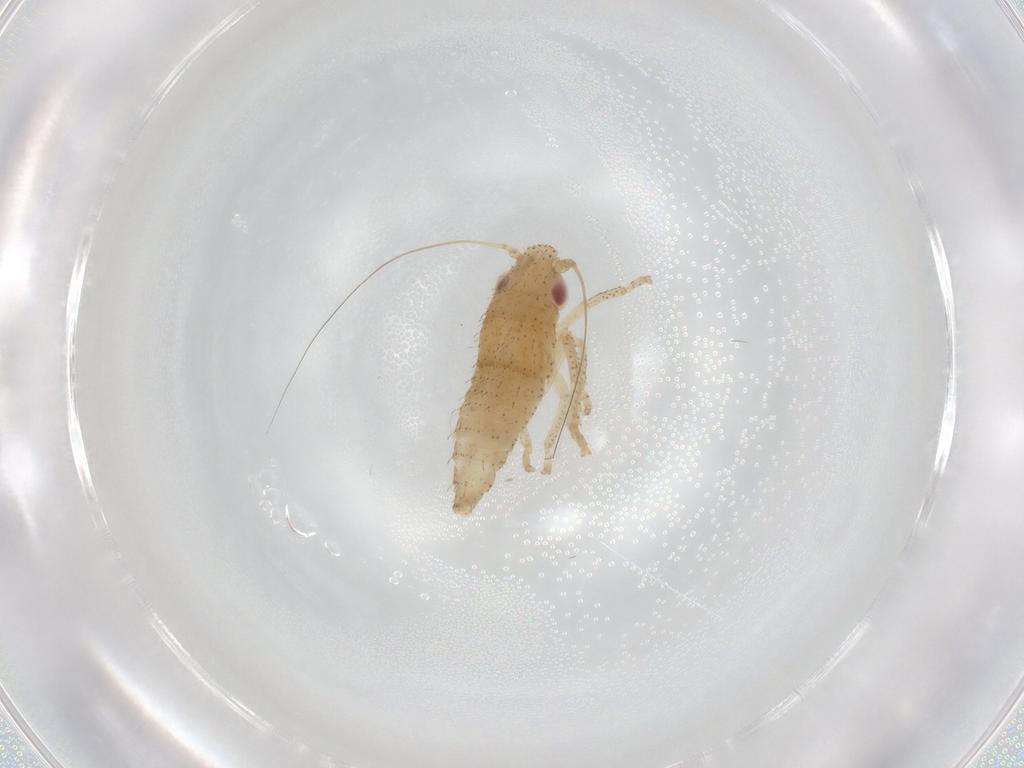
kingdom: Animalia
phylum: Arthropoda
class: Insecta
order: Hemiptera
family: Cicadellidae
